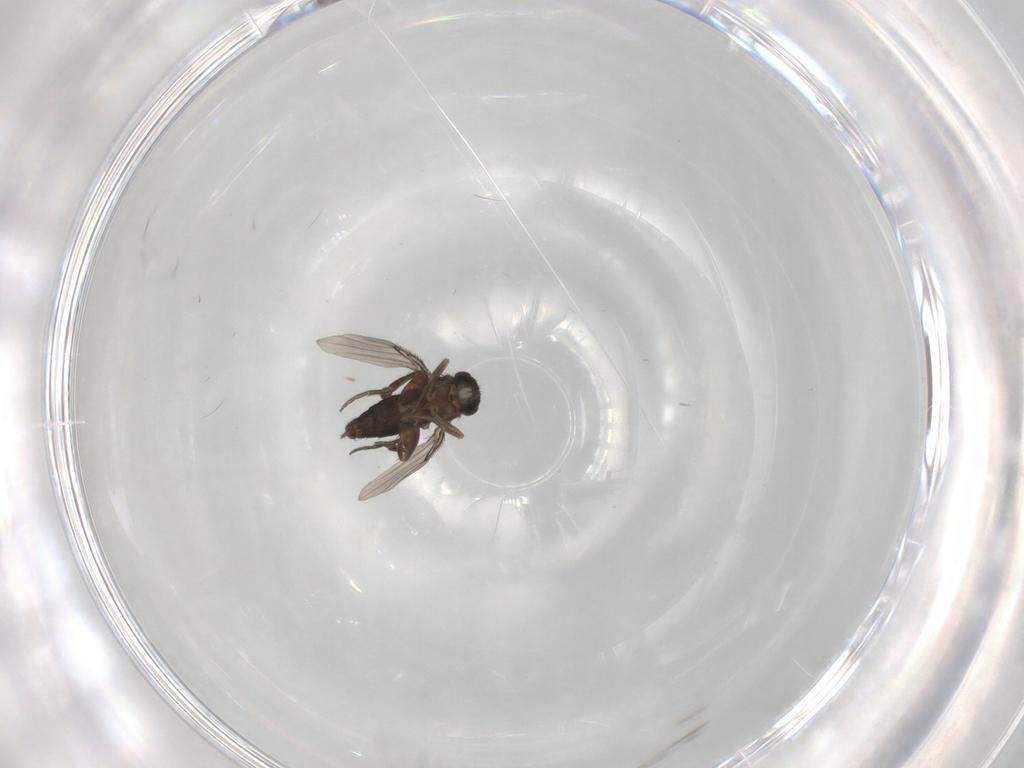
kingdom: Animalia
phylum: Arthropoda
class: Insecta
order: Diptera
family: Phoridae
